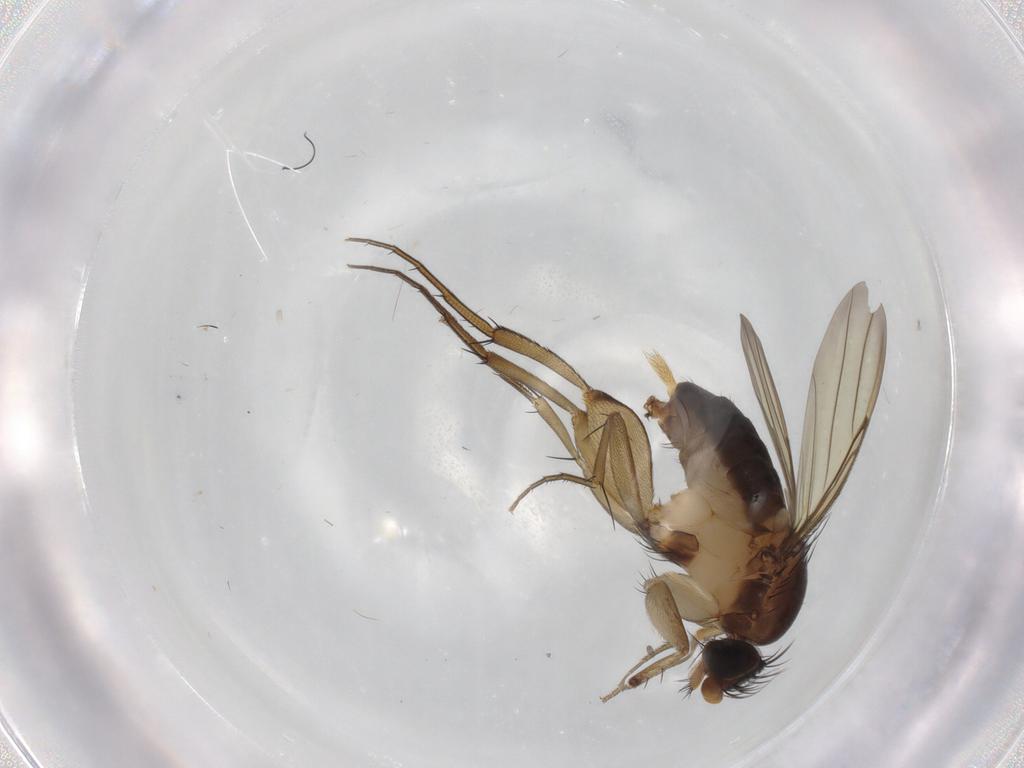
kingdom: Animalia
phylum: Arthropoda
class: Insecta
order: Diptera
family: Phoridae
